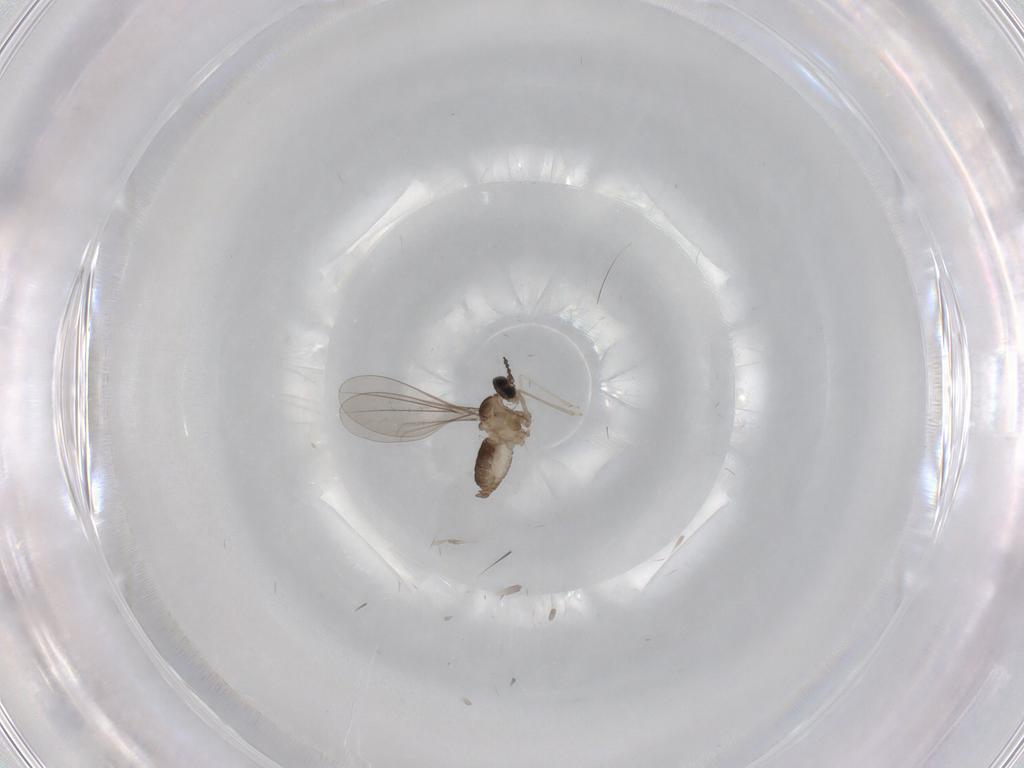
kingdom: Animalia
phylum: Arthropoda
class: Insecta
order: Diptera
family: Cecidomyiidae
